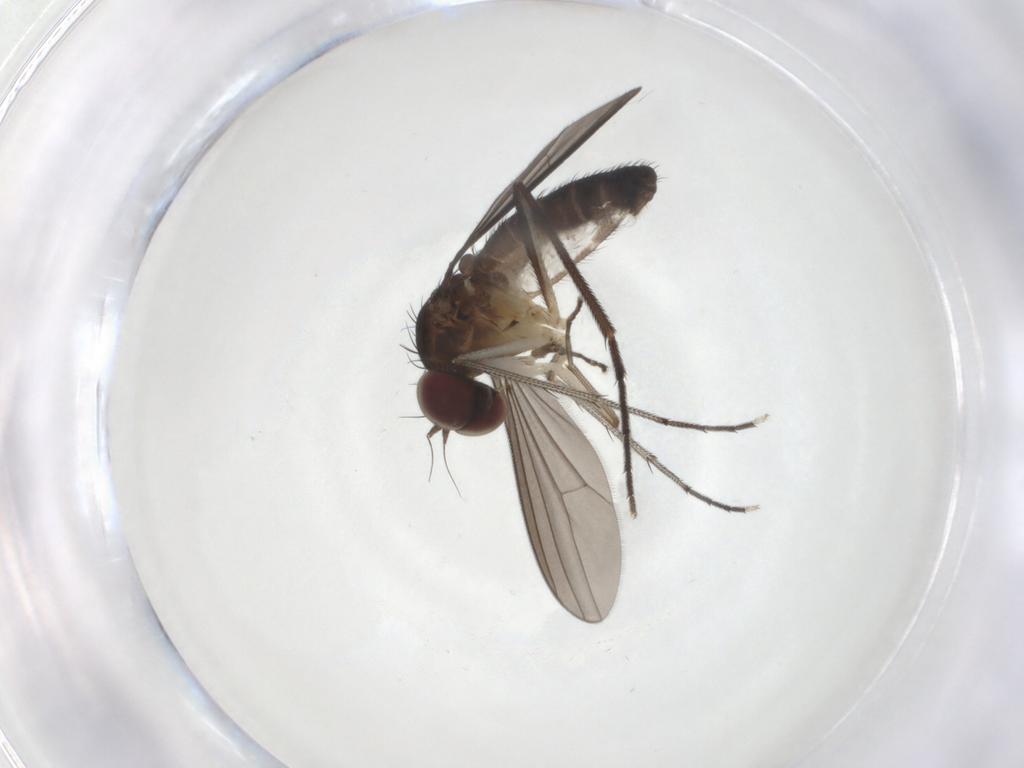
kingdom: Animalia
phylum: Arthropoda
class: Insecta
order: Diptera
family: Dolichopodidae
